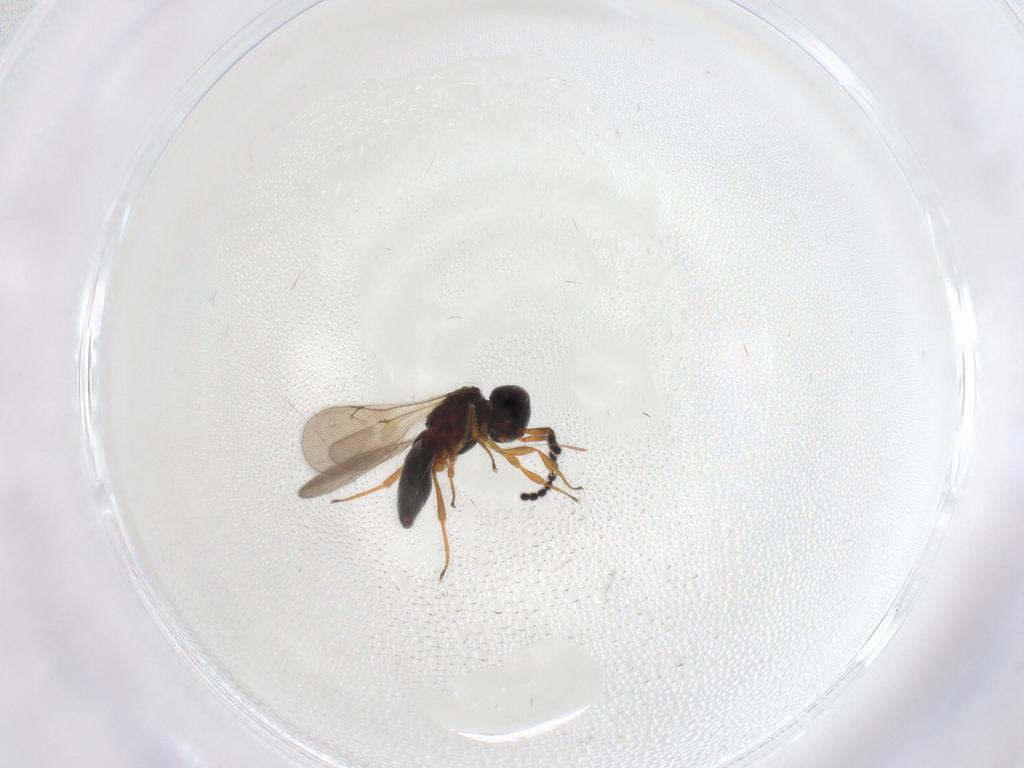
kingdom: Animalia
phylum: Arthropoda
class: Insecta
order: Hymenoptera
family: Scelionidae
